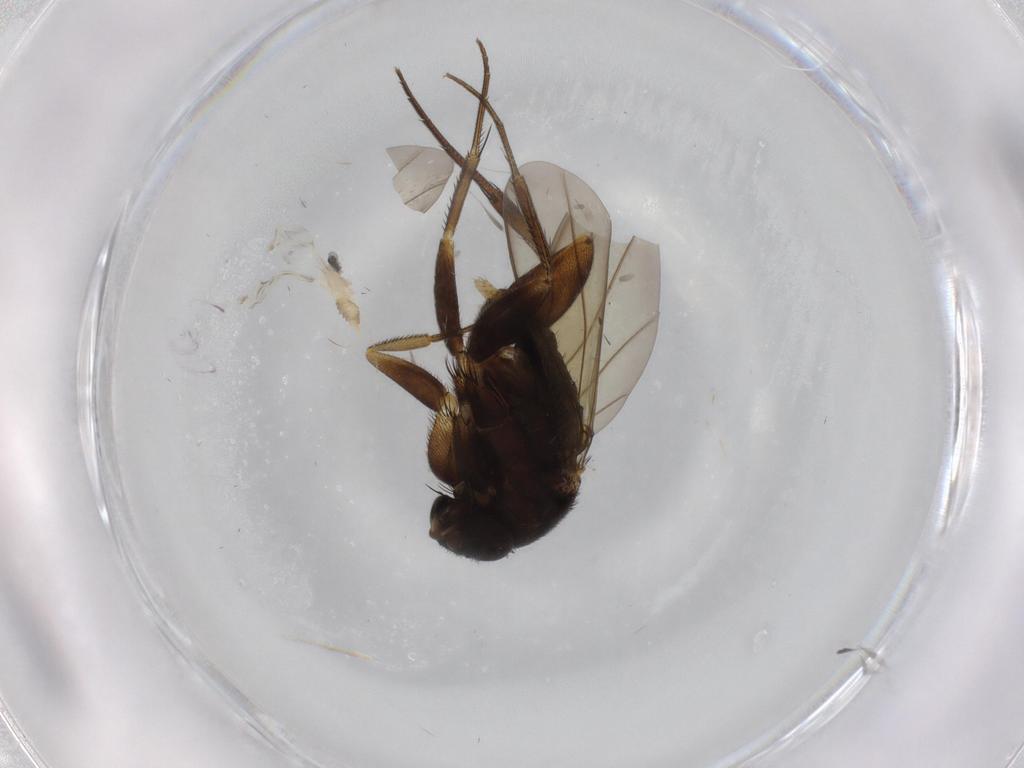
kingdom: Animalia
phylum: Arthropoda
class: Insecta
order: Diptera
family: Phoridae
